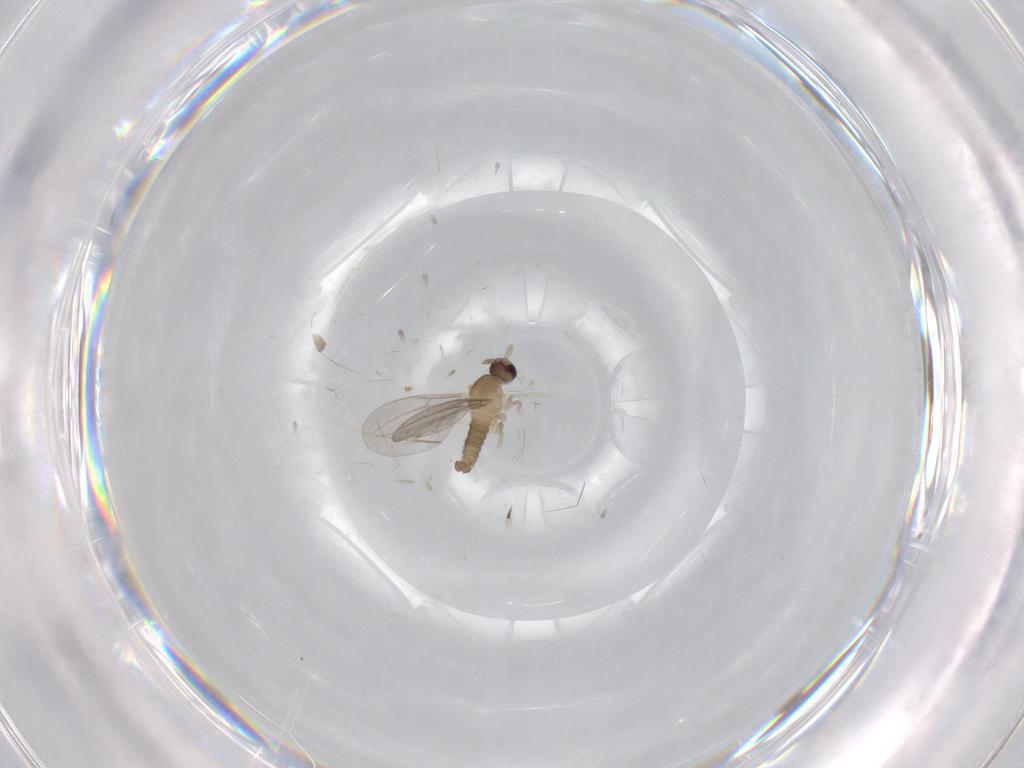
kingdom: Animalia
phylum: Arthropoda
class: Insecta
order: Diptera
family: Cecidomyiidae
